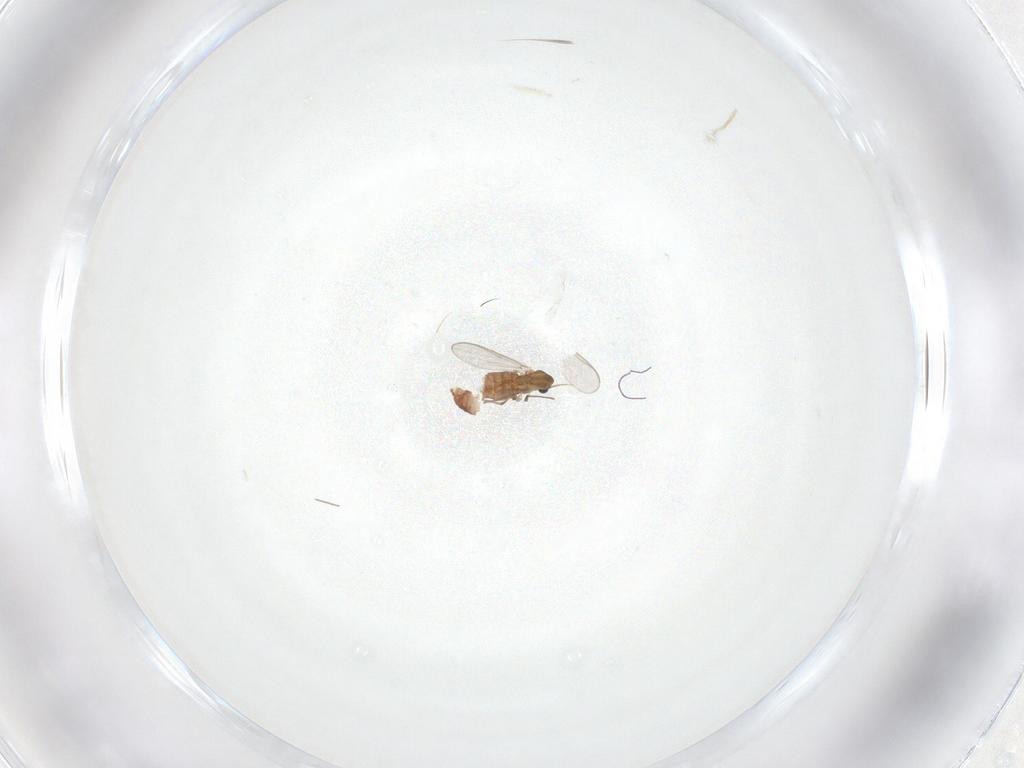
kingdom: Animalia
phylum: Arthropoda
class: Insecta
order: Diptera
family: Chironomidae
